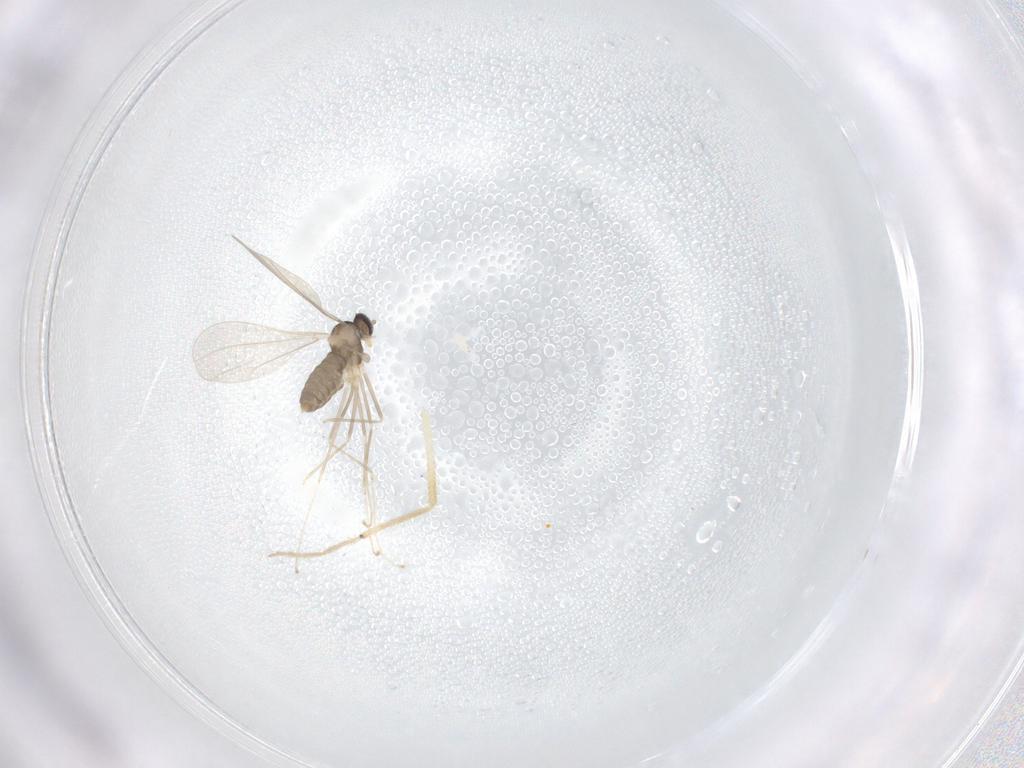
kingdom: Animalia
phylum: Arthropoda
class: Insecta
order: Diptera
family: Cecidomyiidae
